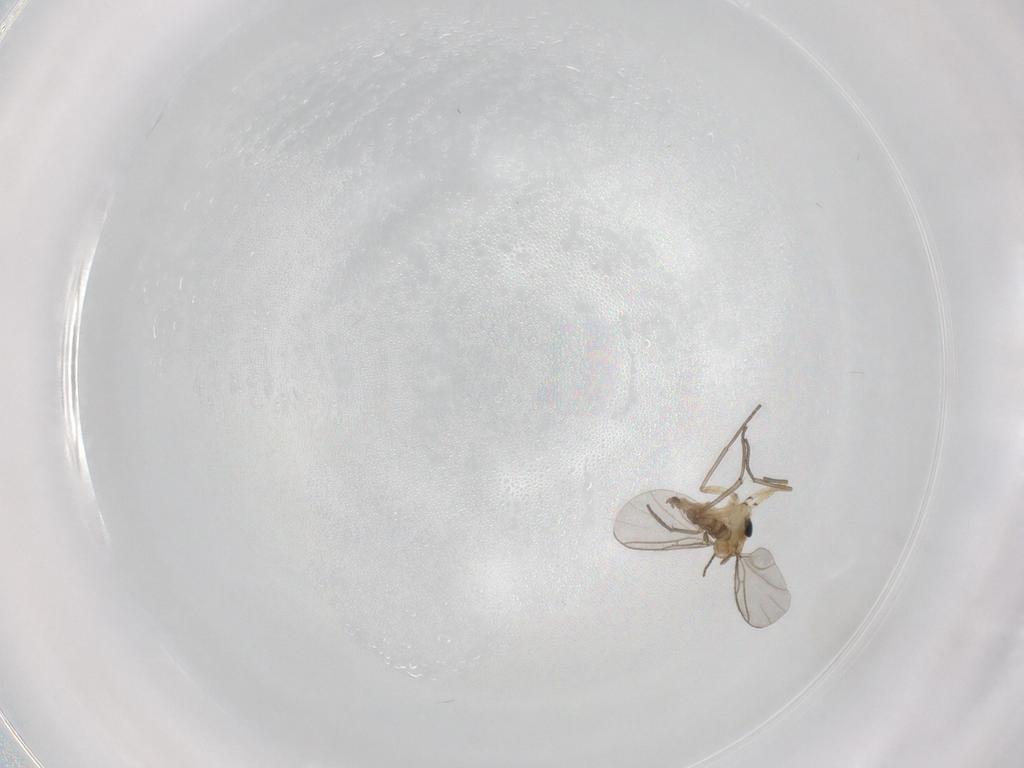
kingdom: Animalia
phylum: Arthropoda
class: Insecta
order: Diptera
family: Sciaridae
